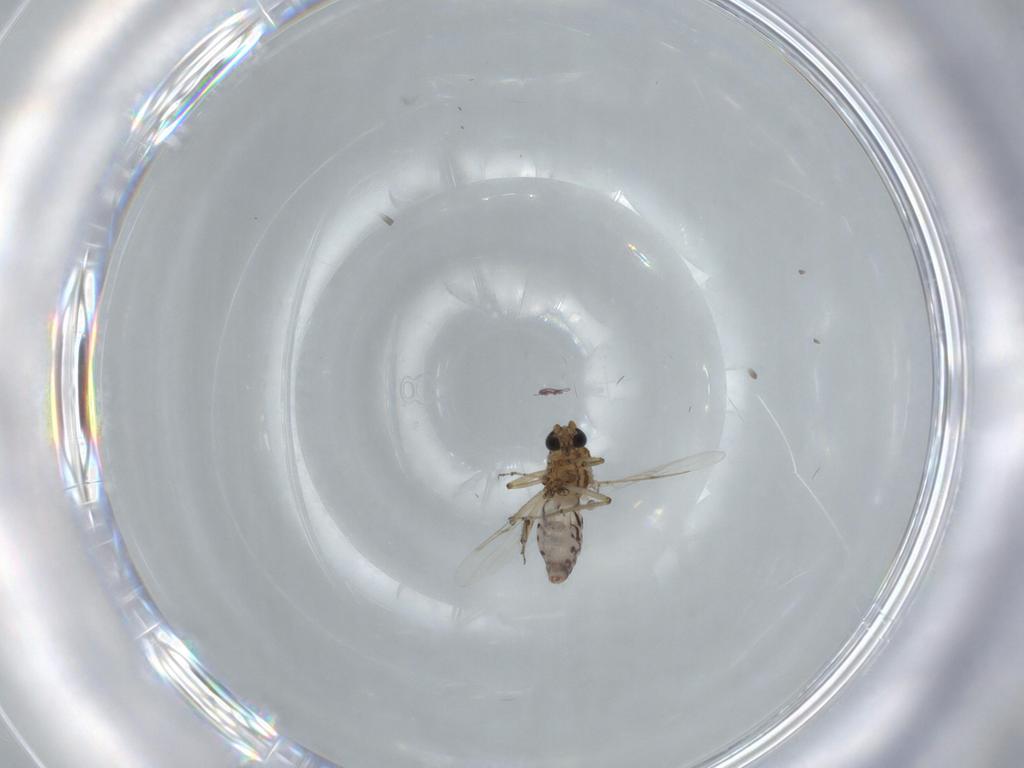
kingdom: Animalia
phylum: Arthropoda
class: Insecta
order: Diptera
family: Ceratopogonidae
